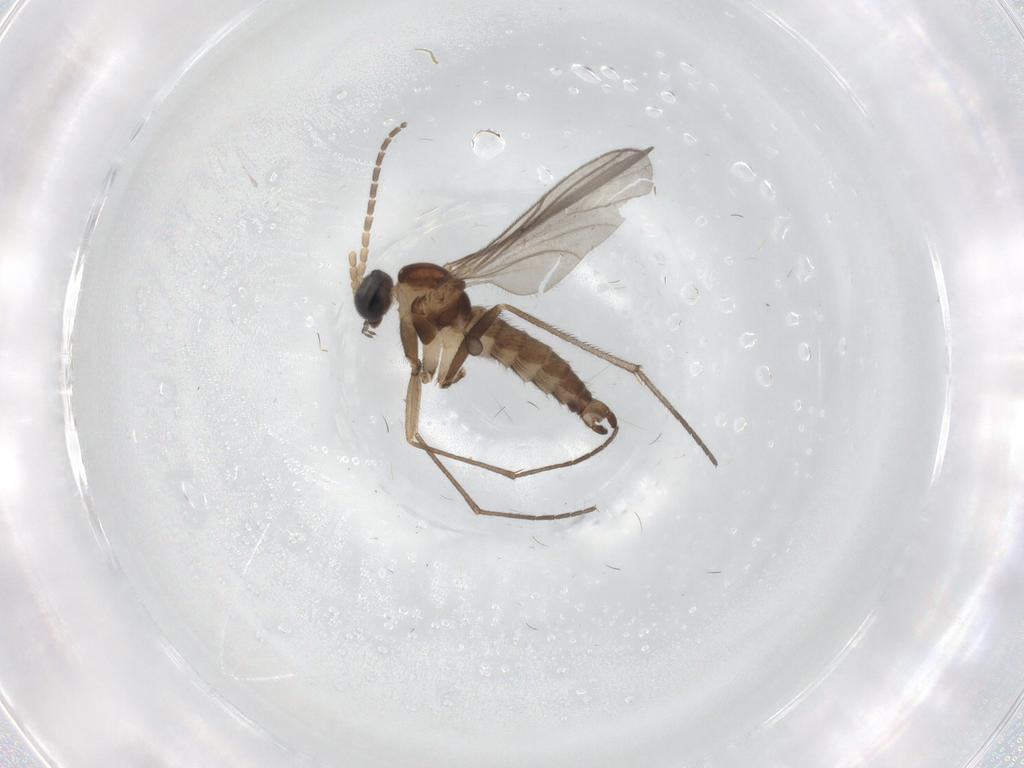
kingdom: Animalia
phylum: Arthropoda
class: Insecta
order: Diptera
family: Sciaridae
